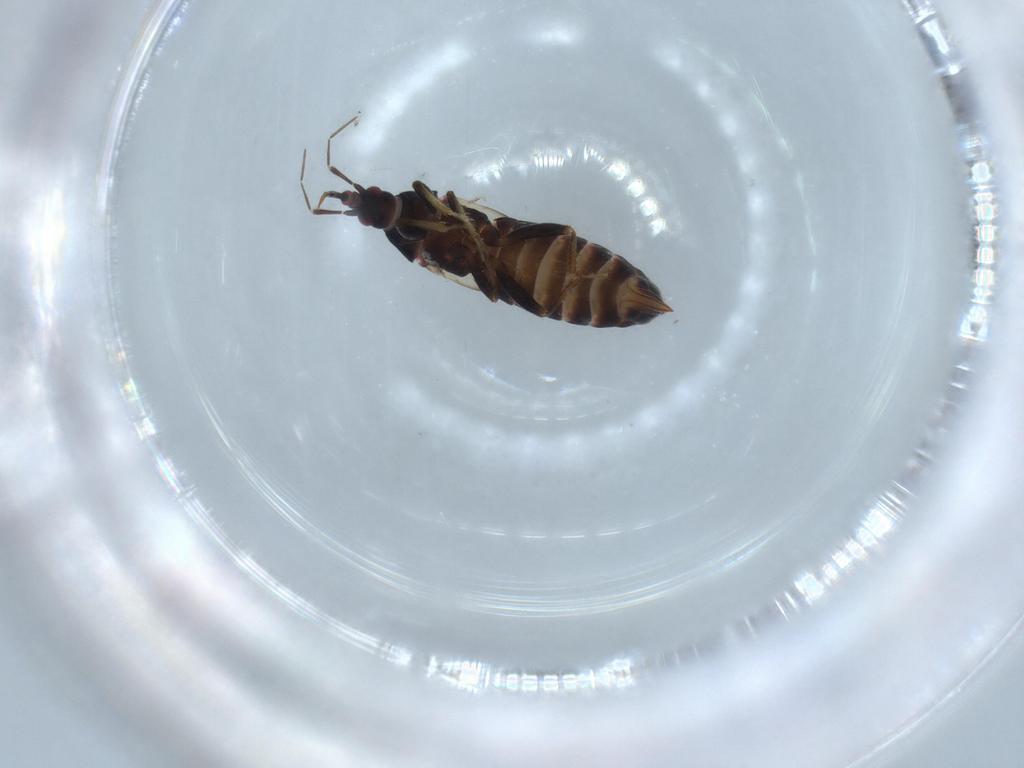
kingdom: Animalia
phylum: Arthropoda
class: Insecta
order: Hemiptera
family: Anthocoridae
